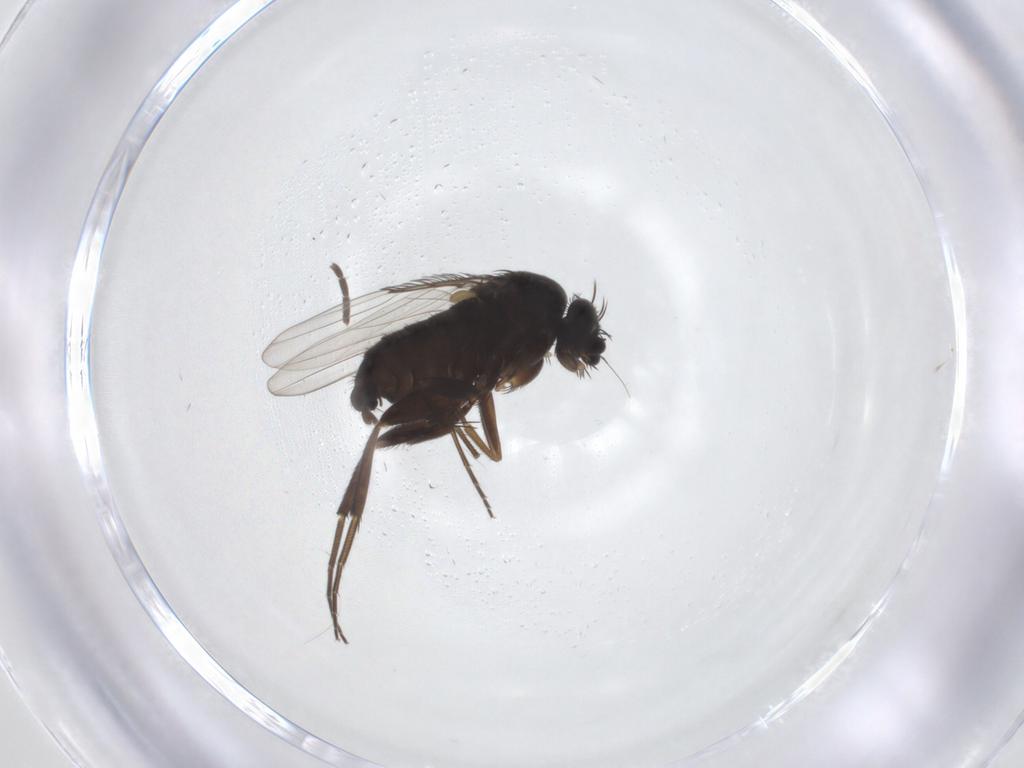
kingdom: Animalia
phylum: Arthropoda
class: Insecta
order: Diptera
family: Phoridae
